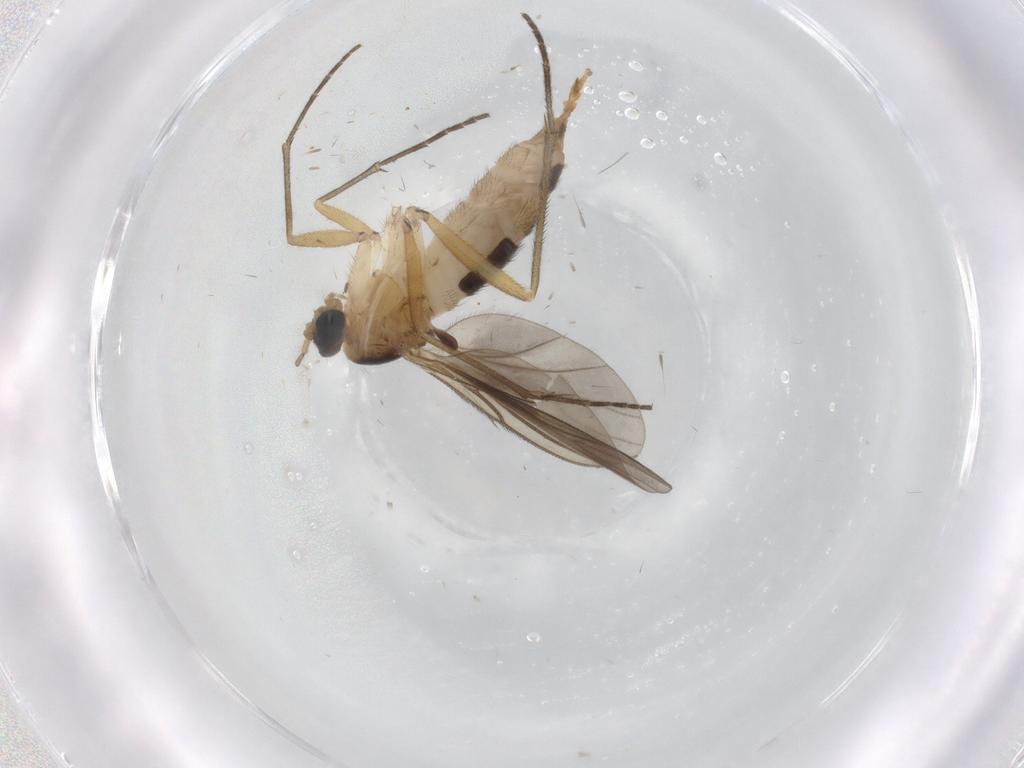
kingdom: Animalia
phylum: Arthropoda
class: Insecta
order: Diptera
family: Sciaridae
